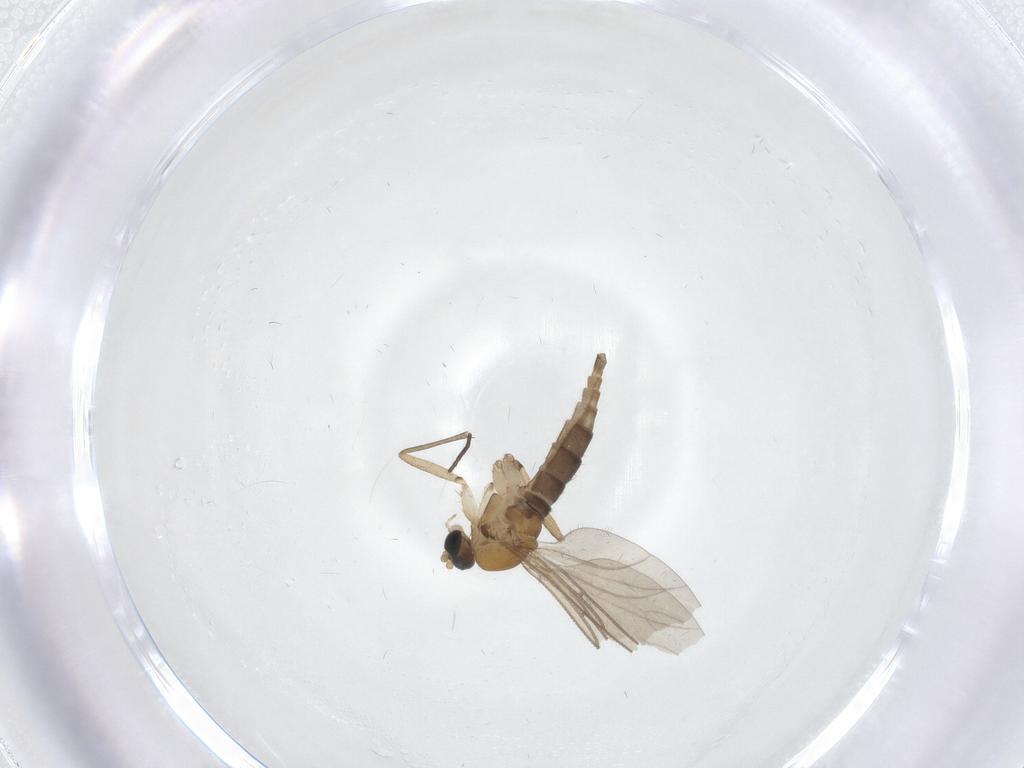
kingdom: Animalia
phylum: Arthropoda
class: Insecta
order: Diptera
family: Sciaridae
